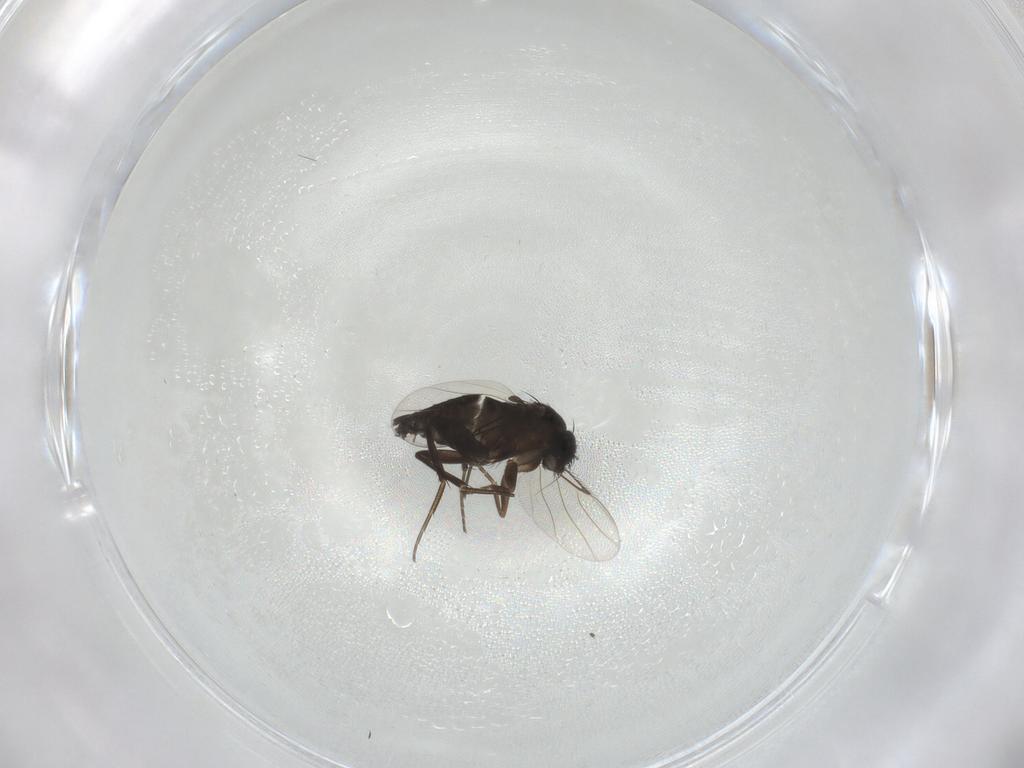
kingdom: Animalia
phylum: Arthropoda
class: Insecta
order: Diptera
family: Phoridae
